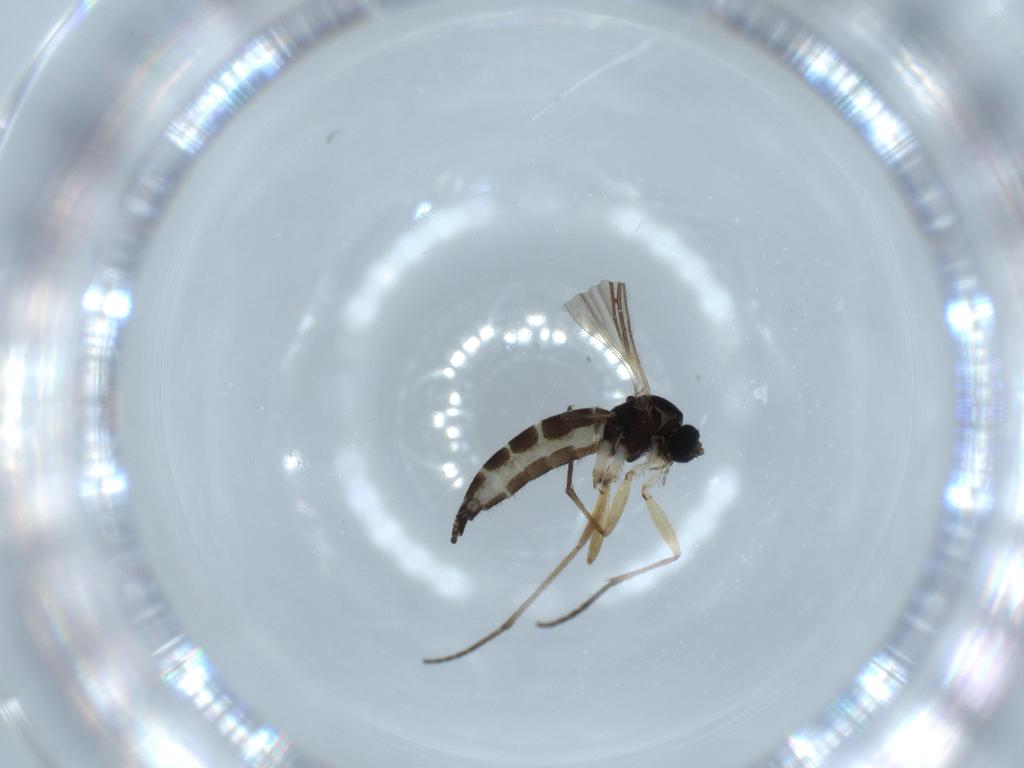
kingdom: Animalia
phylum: Arthropoda
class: Insecta
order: Diptera
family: Sciaridae
